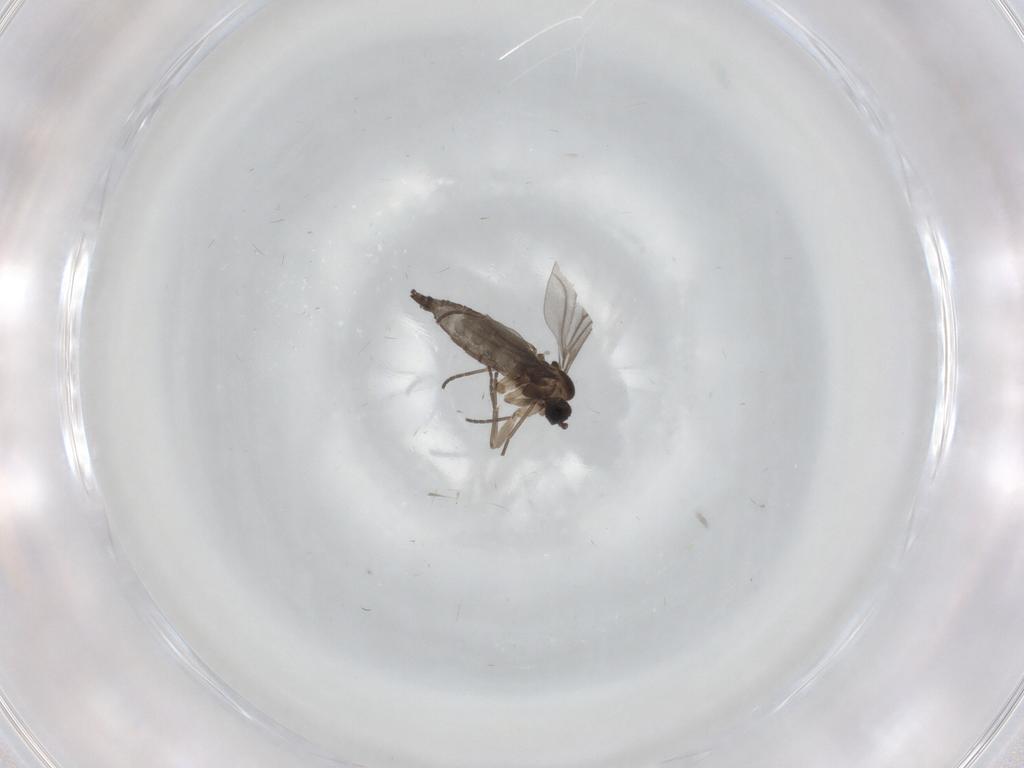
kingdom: Animalia
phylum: Arthropoda
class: Insecta
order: Diptera
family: Sciaridae
